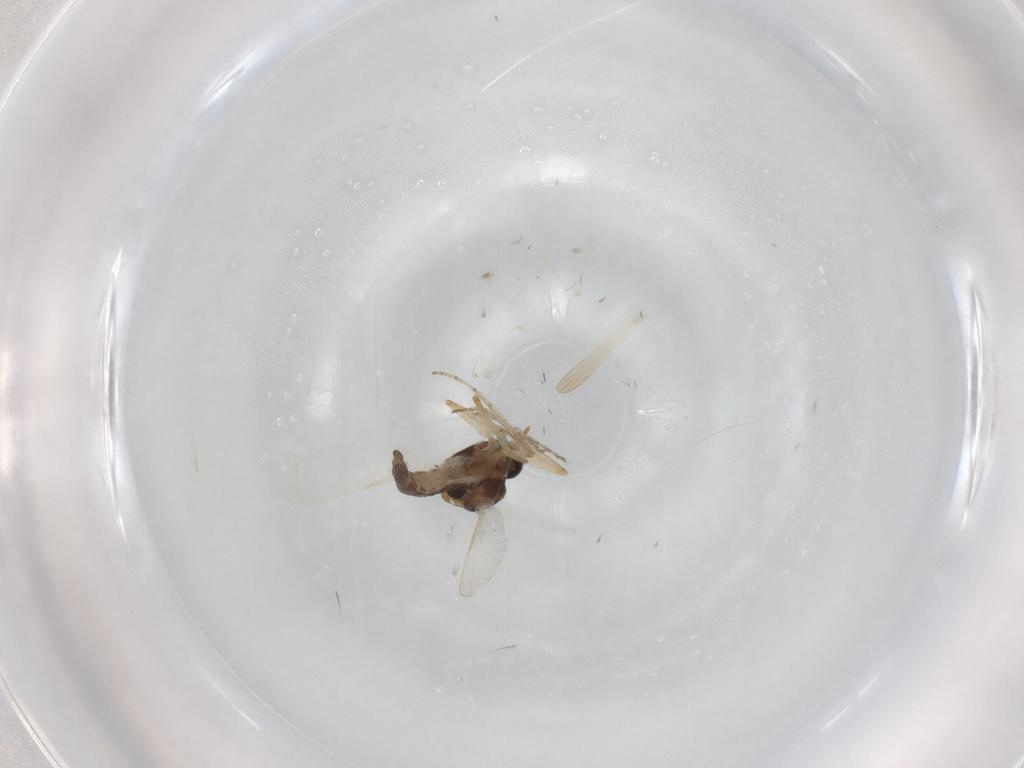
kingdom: Animalia
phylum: Arthropoda
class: Insecta
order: Diptera
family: Ceratopogonidae
